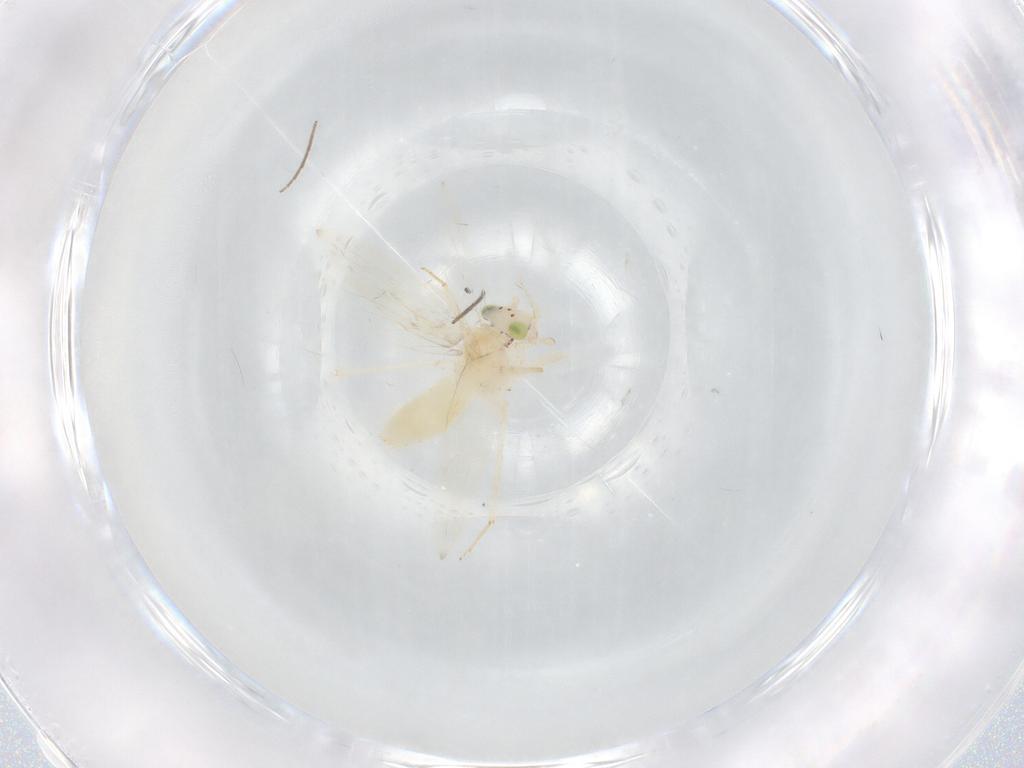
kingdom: Animalia
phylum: Arthropoda
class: Insecta
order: Psocodea
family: Lepidopsocidae
